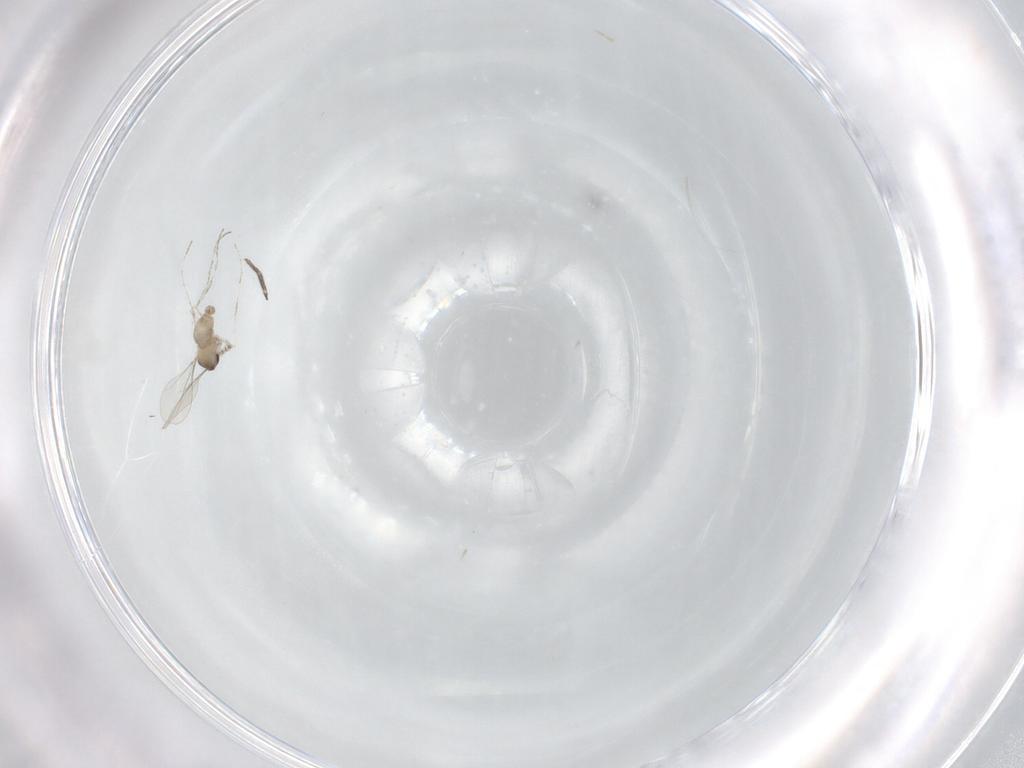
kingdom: Animalia
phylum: Arthropoda
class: Insecta
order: Diptera
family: Cecidomyiidae
